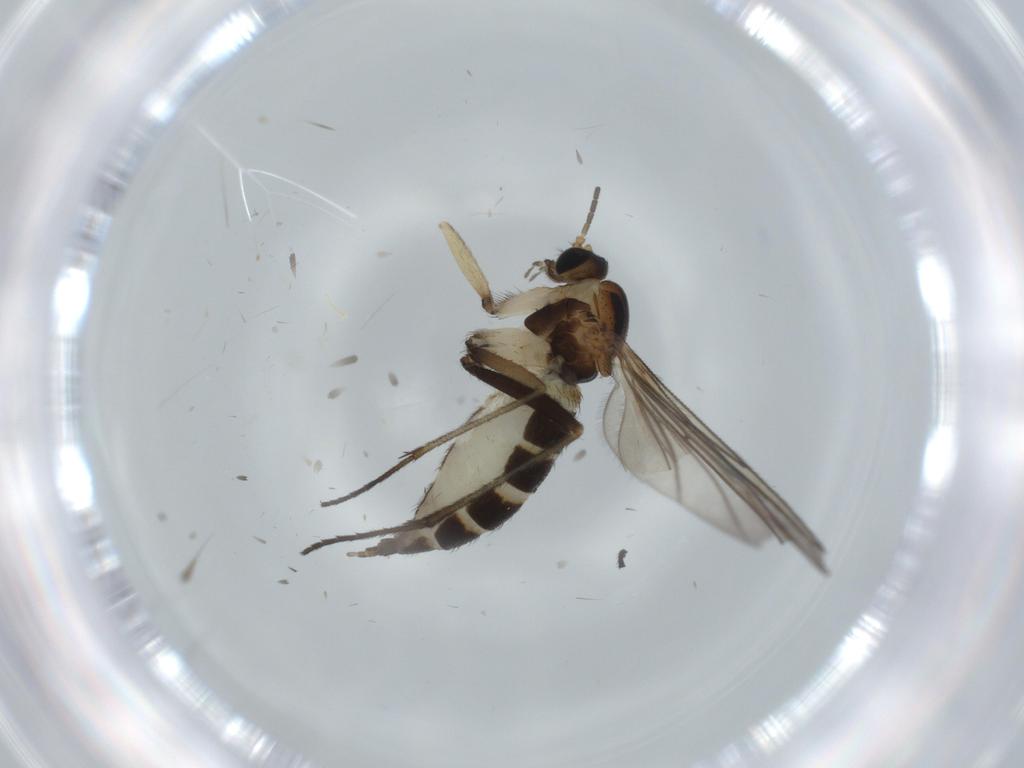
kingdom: Animalia
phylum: Arthropoda
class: Insecta
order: Diptera
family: Sciaridae
